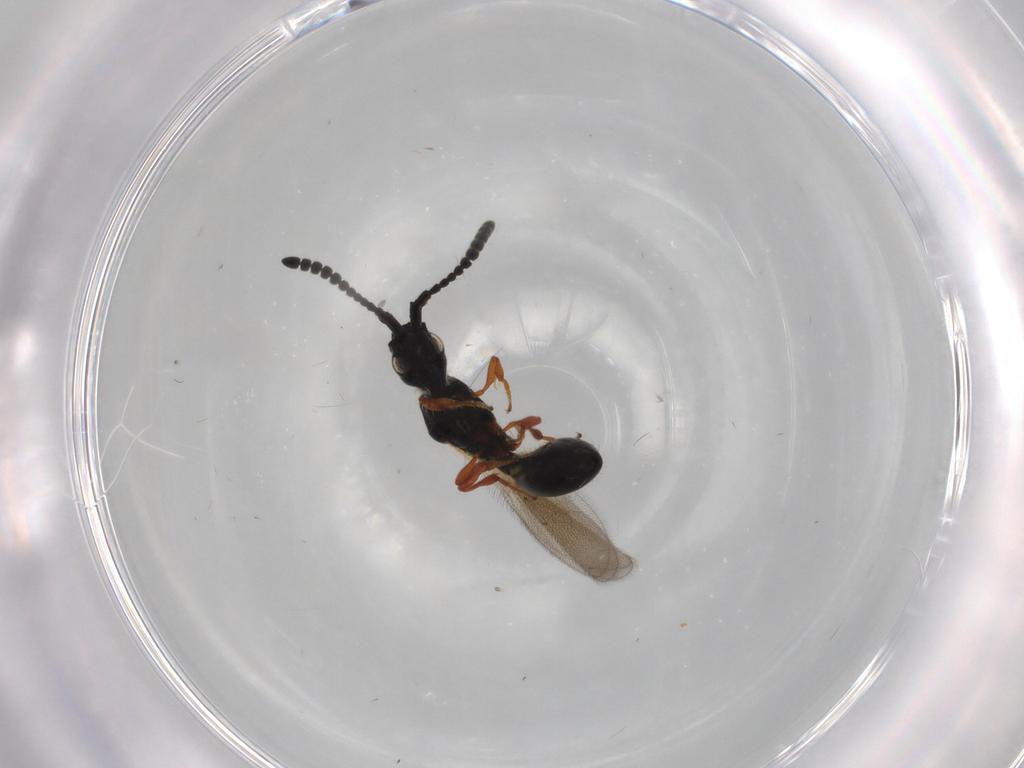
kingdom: Animalia
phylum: Arthropoda
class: Insecta
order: Hymenoptera
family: Diapriidae
